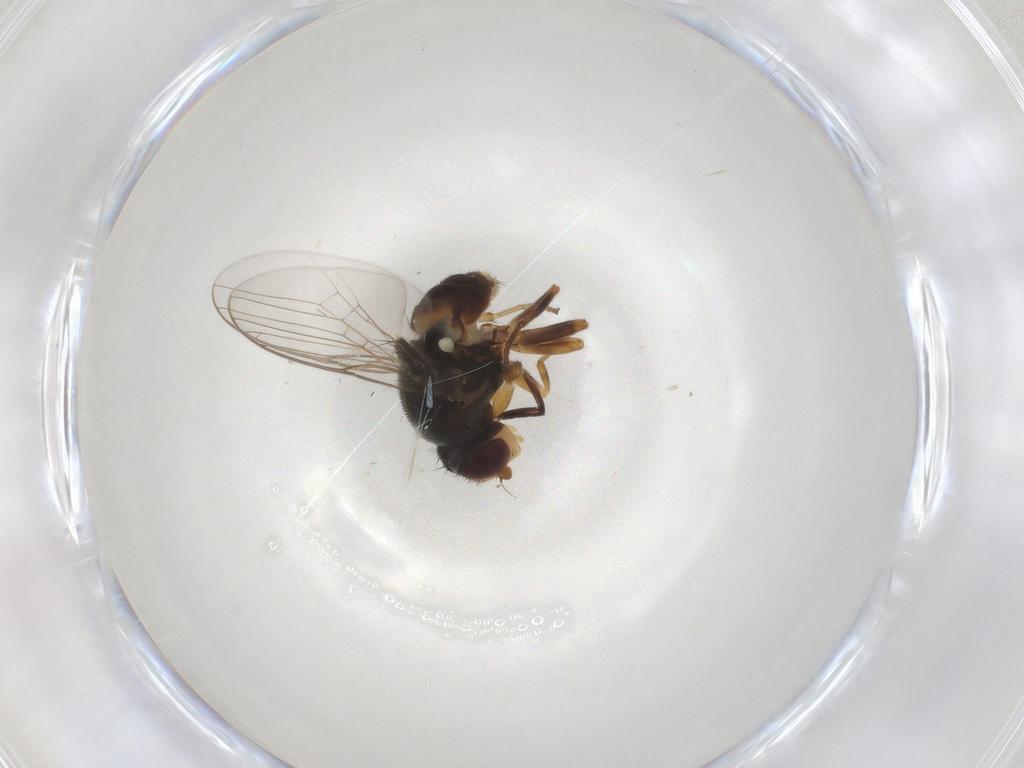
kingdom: Animalia
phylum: Arthropoda
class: Insecta
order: Diptera
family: Chloropidae
